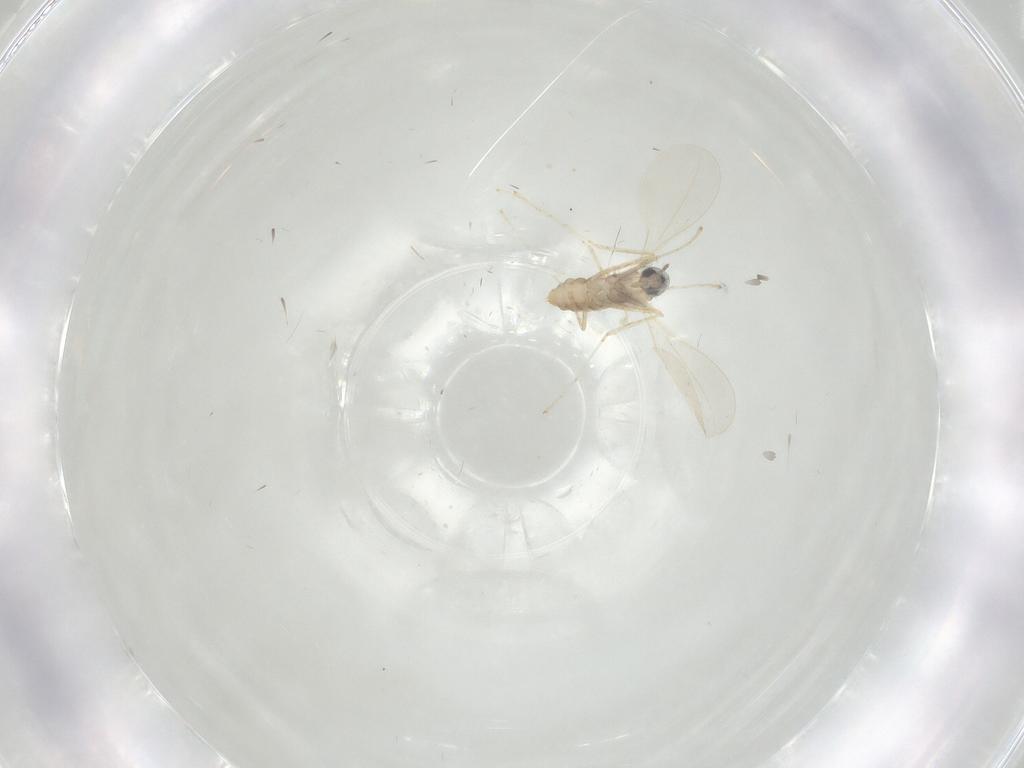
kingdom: Animalia
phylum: Arthropoda
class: Insecta
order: Diptera
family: Cecidomyiidae
